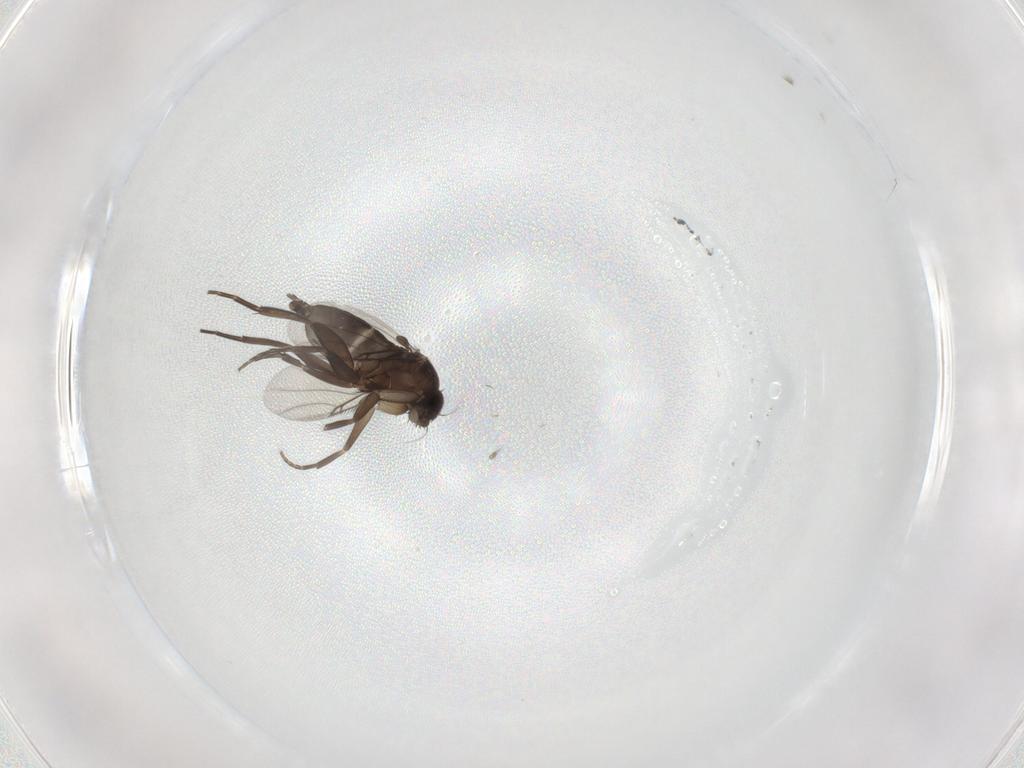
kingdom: Animalia
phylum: Arthropoda
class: Insecta
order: Diptera
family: Phoridae
